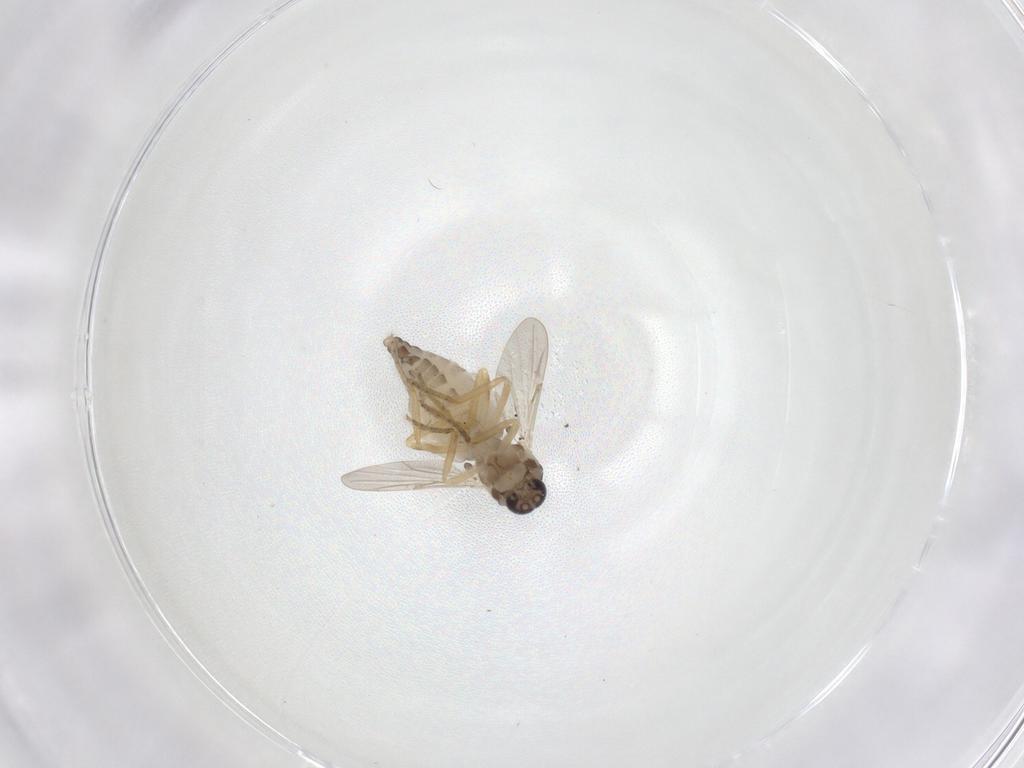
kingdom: Animalia
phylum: Arthropoda
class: Insecta
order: Diptera
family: Ceratopogonidae
